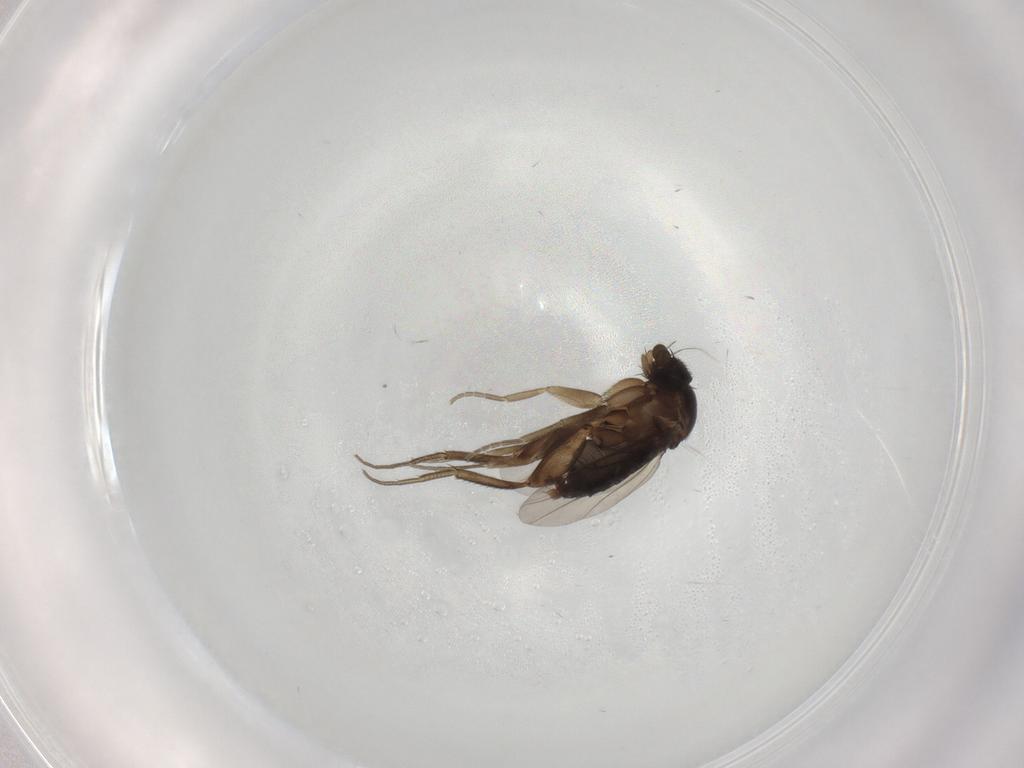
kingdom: Animalia
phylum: Arthropoda
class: Insecta
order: Diptera
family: Phoridae
